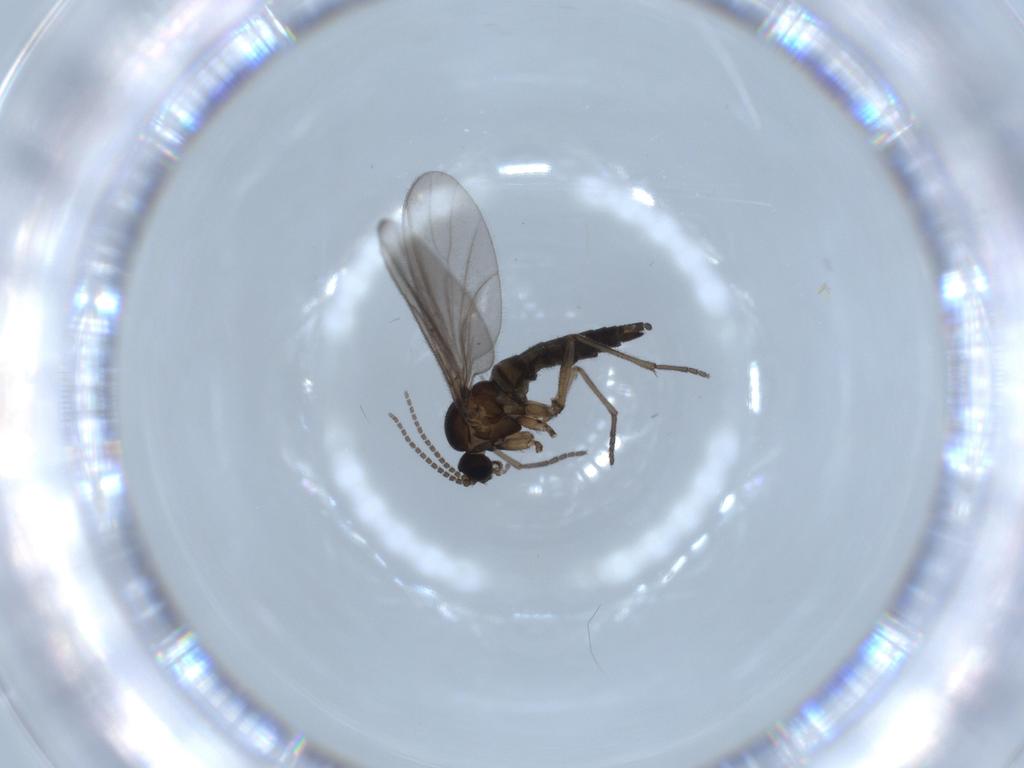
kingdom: Animalia
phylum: Arthropoda
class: Insecta
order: Diptera
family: Sciaridae
